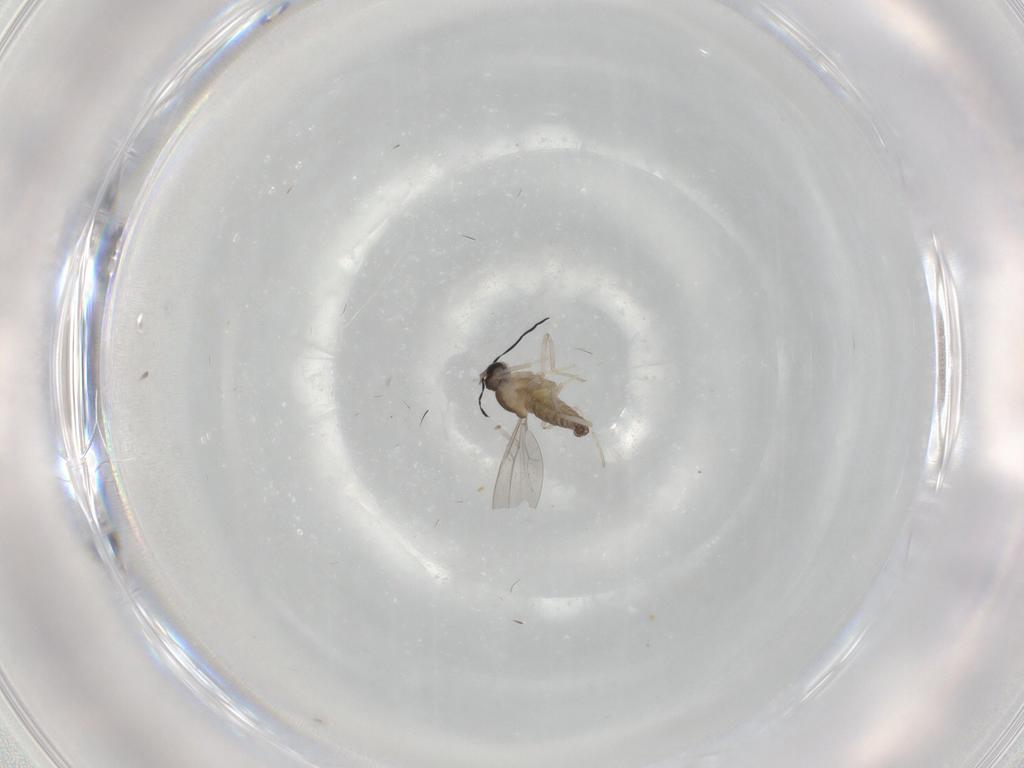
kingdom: Animalia
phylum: Arthropoda
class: Insecta
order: Diptera
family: Cecidomyiidae
